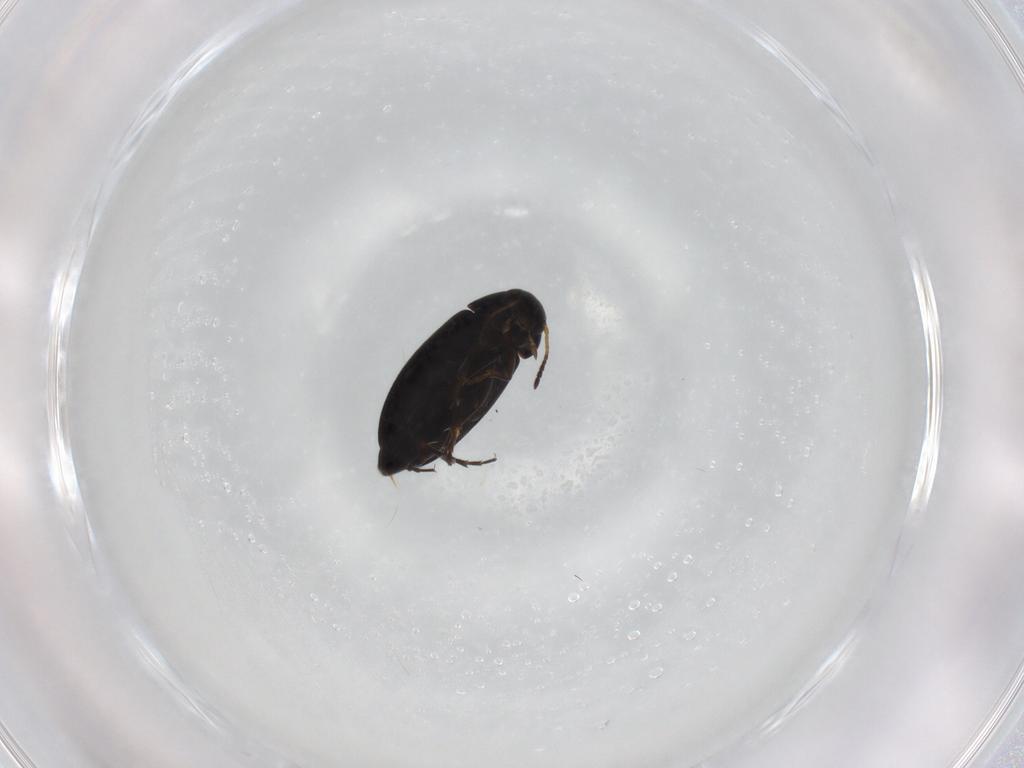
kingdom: Animalia
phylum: Arthropoda
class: Insecta
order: Coleoptera
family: Scraptiidae
